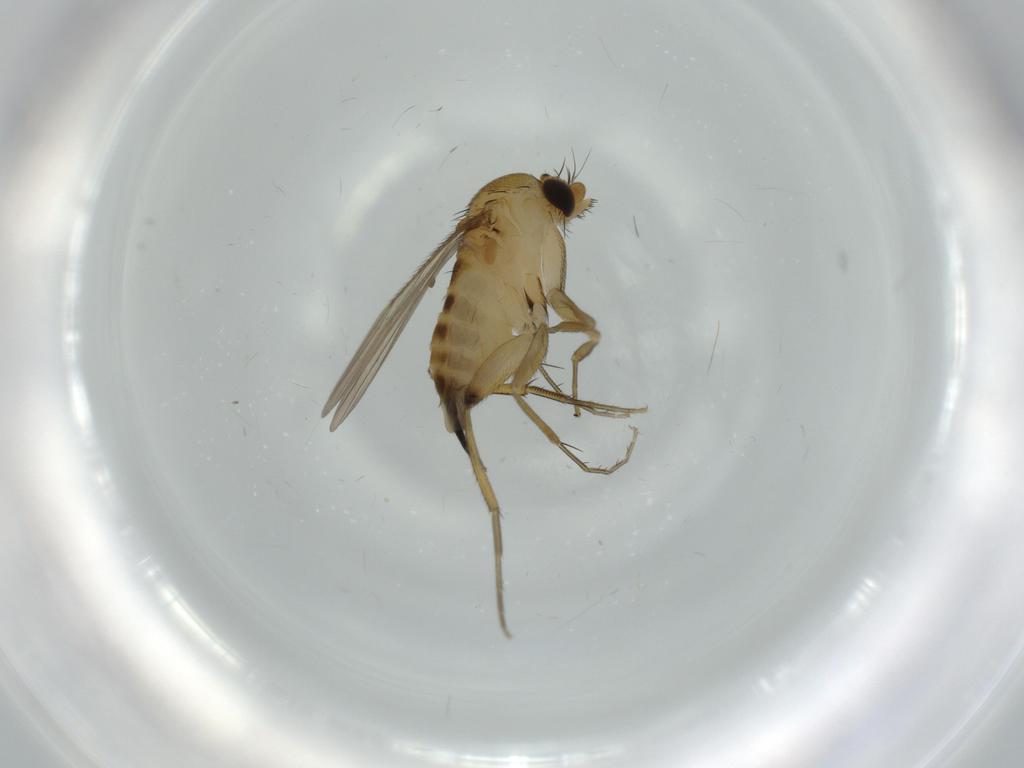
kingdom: Animalia
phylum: Arthropoda
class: Insecta
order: Diptera
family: Phoridae
